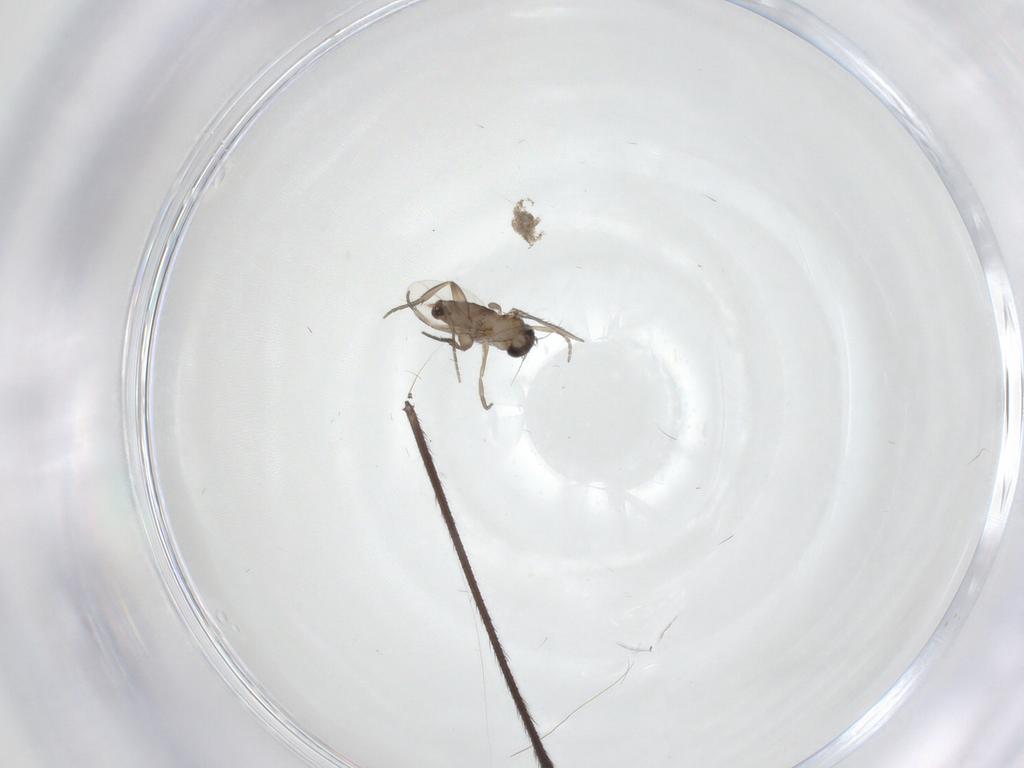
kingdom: Animalia
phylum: Arthropoda
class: Insecta
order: Diptera
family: Phoridae
